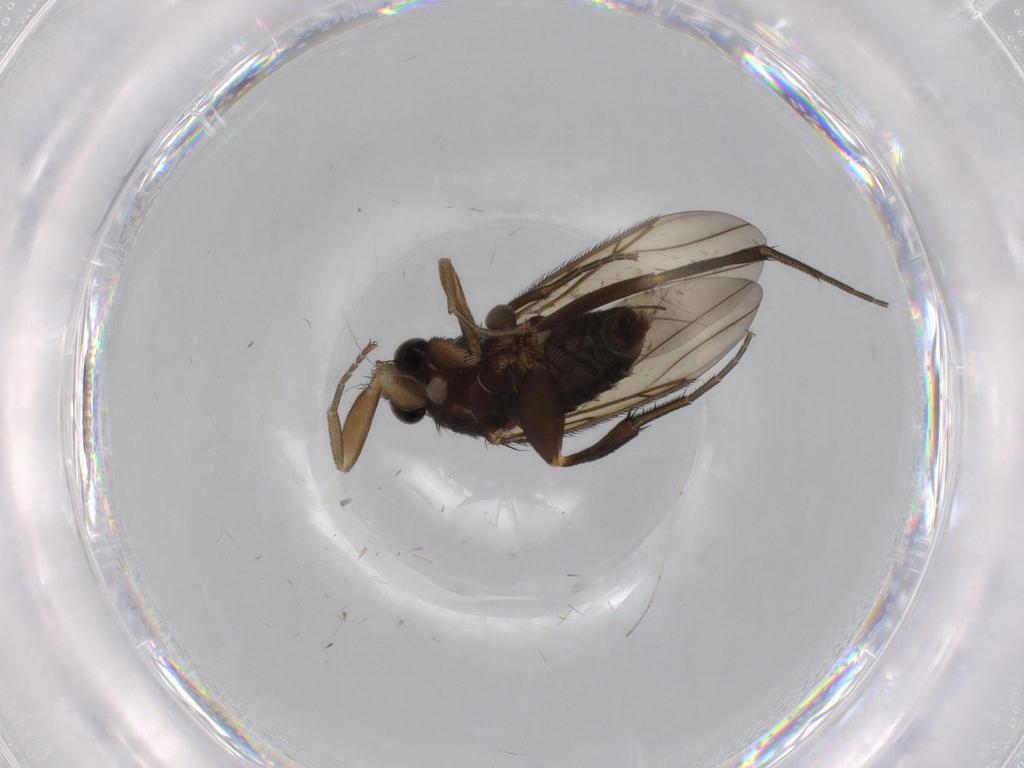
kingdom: Animalia
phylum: Arthropoda
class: Insecta
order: Diptera
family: Phoridae
